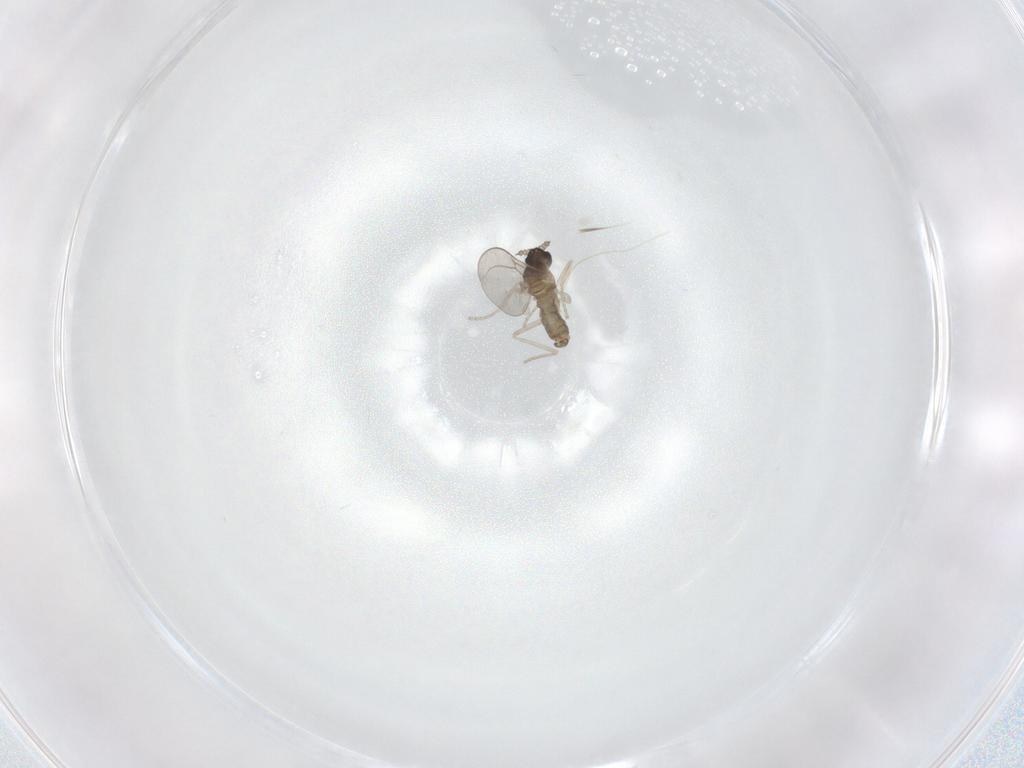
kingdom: Animalia
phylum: Arthropoda
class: Insecta
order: Diptera
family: Cecidomyiidae
